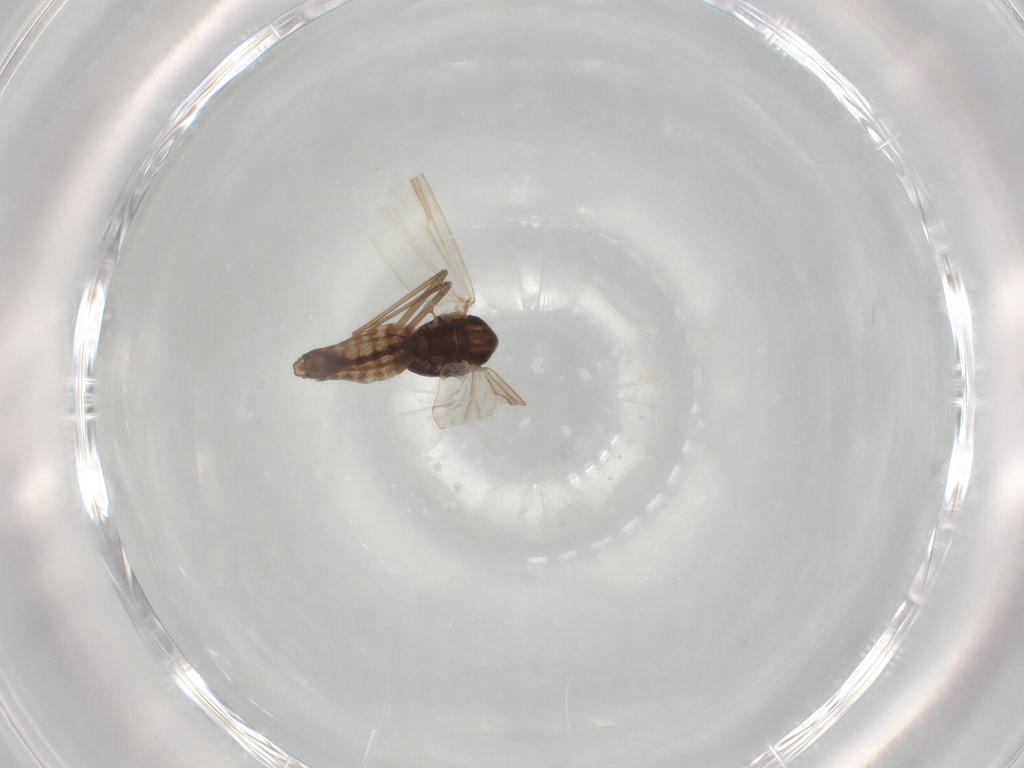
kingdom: Animalia
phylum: Arthropoda
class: Insecta
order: Diptera
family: Chironomidae
